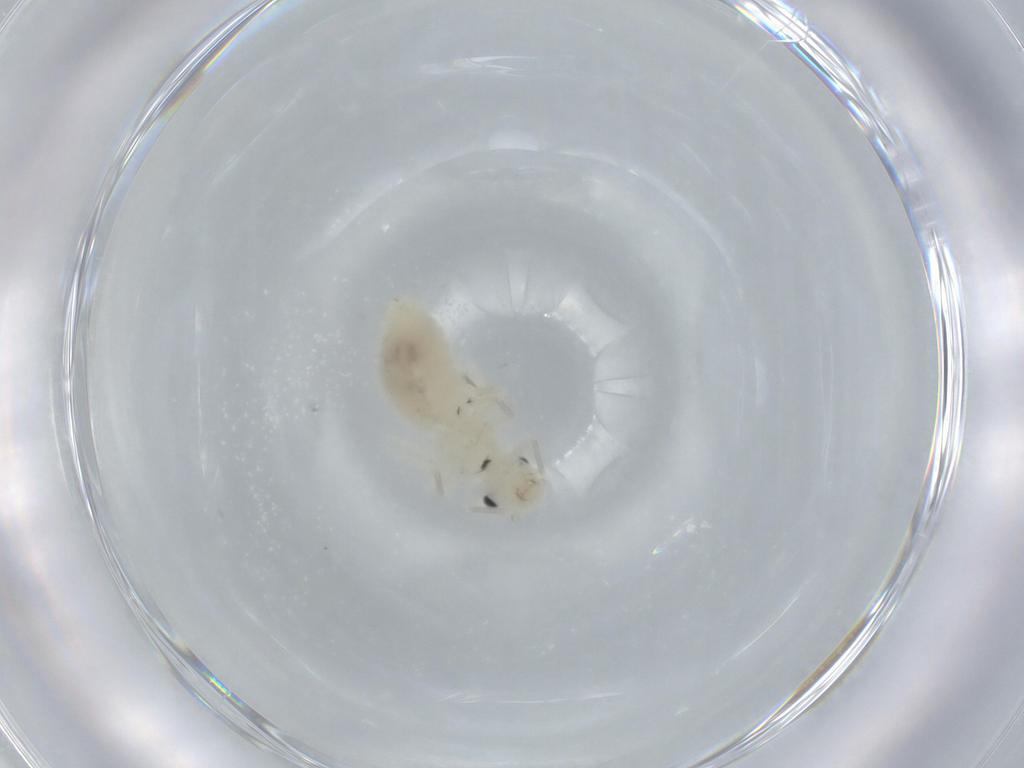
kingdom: Animalia
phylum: Arthropoda
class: Insecta
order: Psocodea
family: Caeciliusidae
